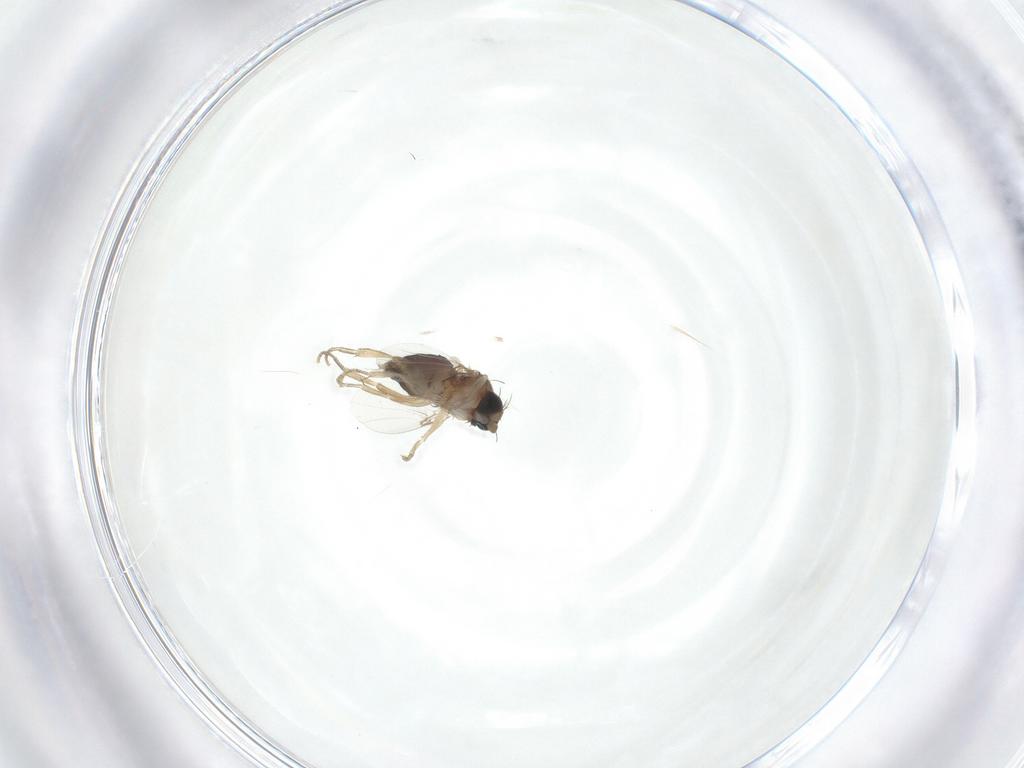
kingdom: Animalia
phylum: Arthropoda
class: Insecta
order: Diptera
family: Phoridae
